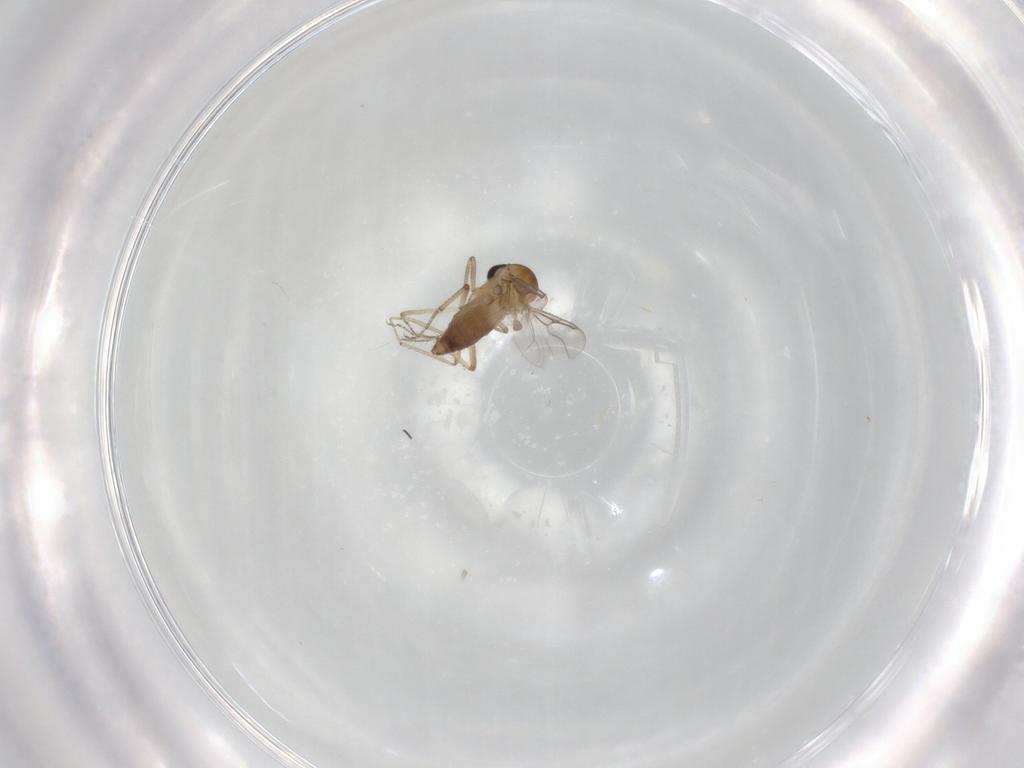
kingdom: Animalia
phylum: Arthropoda
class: Insecta
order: Diptera
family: Ceratopogonidae
